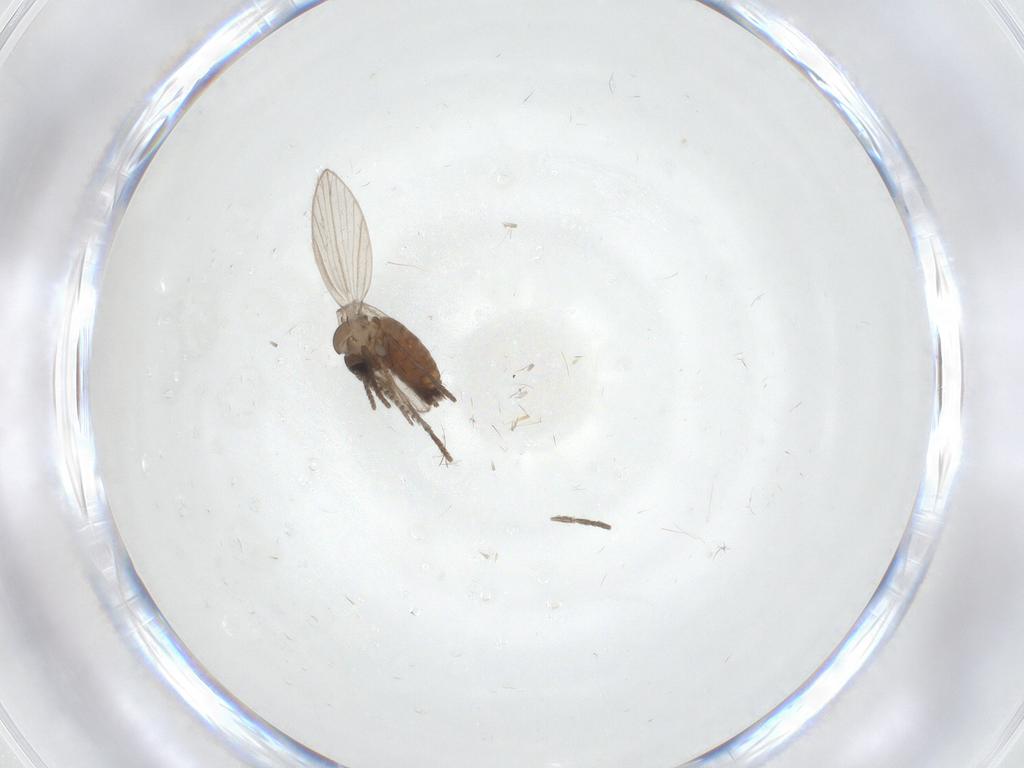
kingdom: Animalia
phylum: Arthropoda
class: Insecta
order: Diptera
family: Psychodidae
